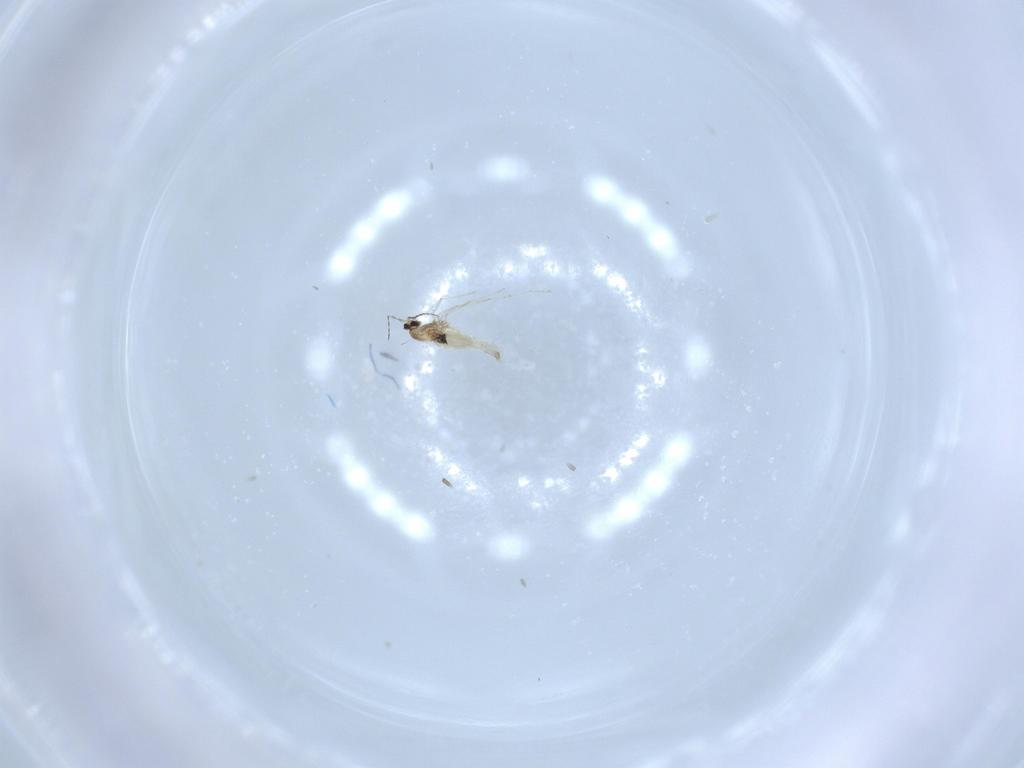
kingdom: Animalia
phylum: Arthropoda
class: Insecta
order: Diptera
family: Cecidomyiidae
